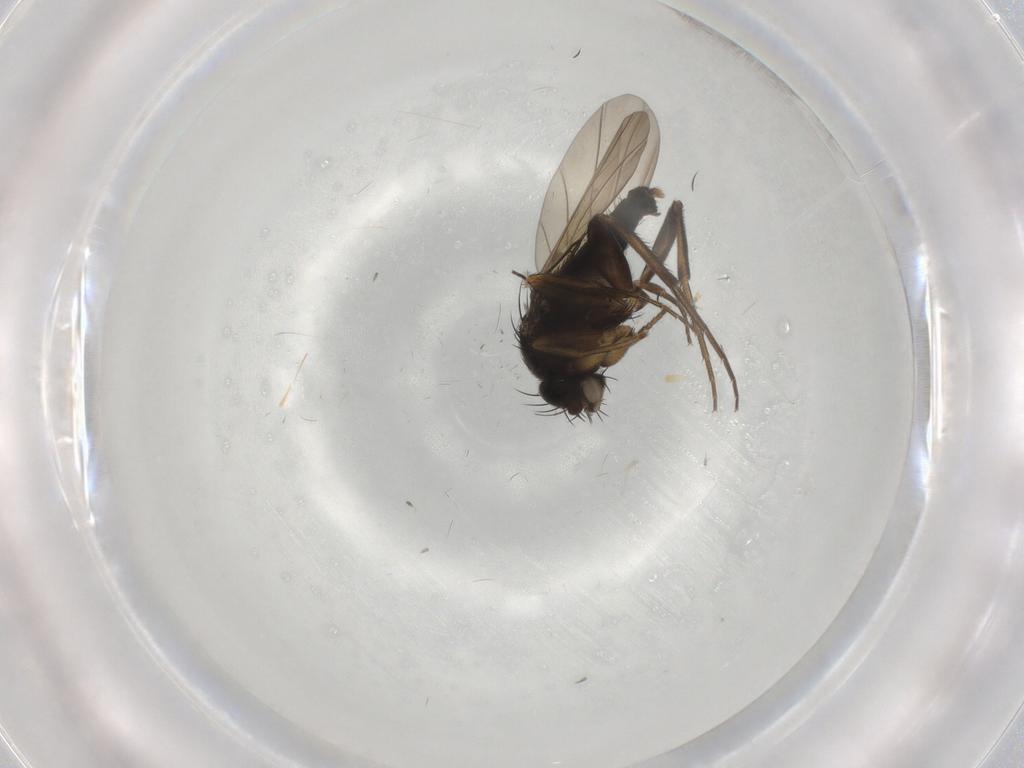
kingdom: Animalia
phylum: Arthropoda
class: Insecta
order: Diptera
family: Phoridae
